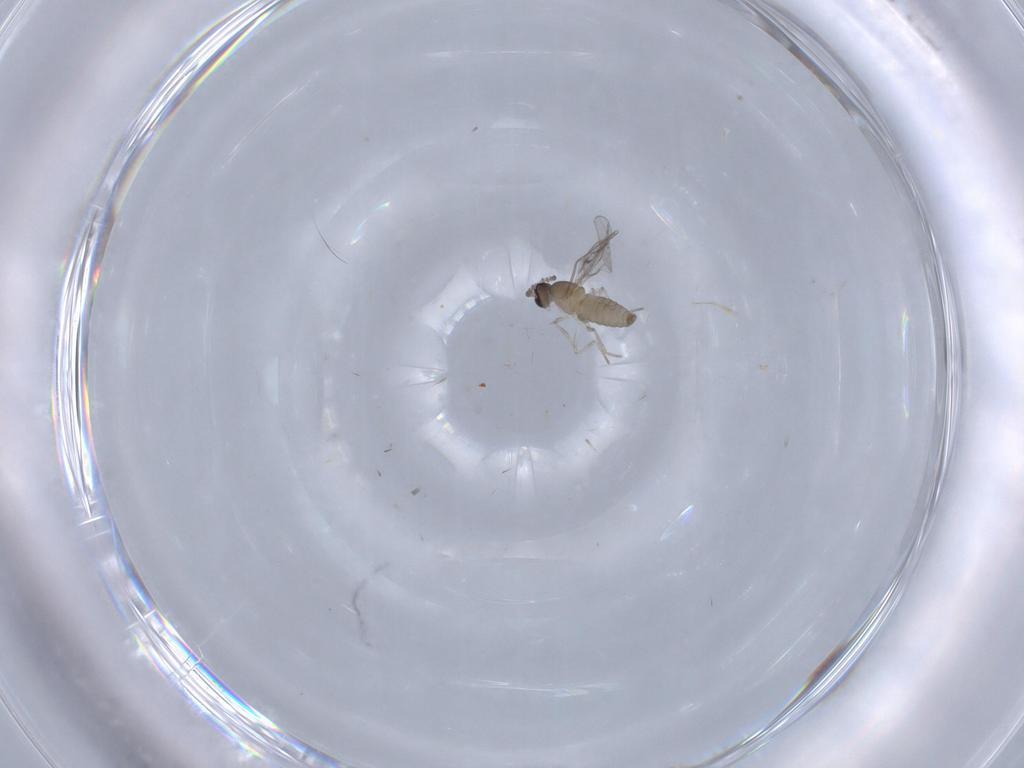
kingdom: Animalia
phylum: Arthropoda
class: Insecta
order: Diptera
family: Cecidomyiidae
